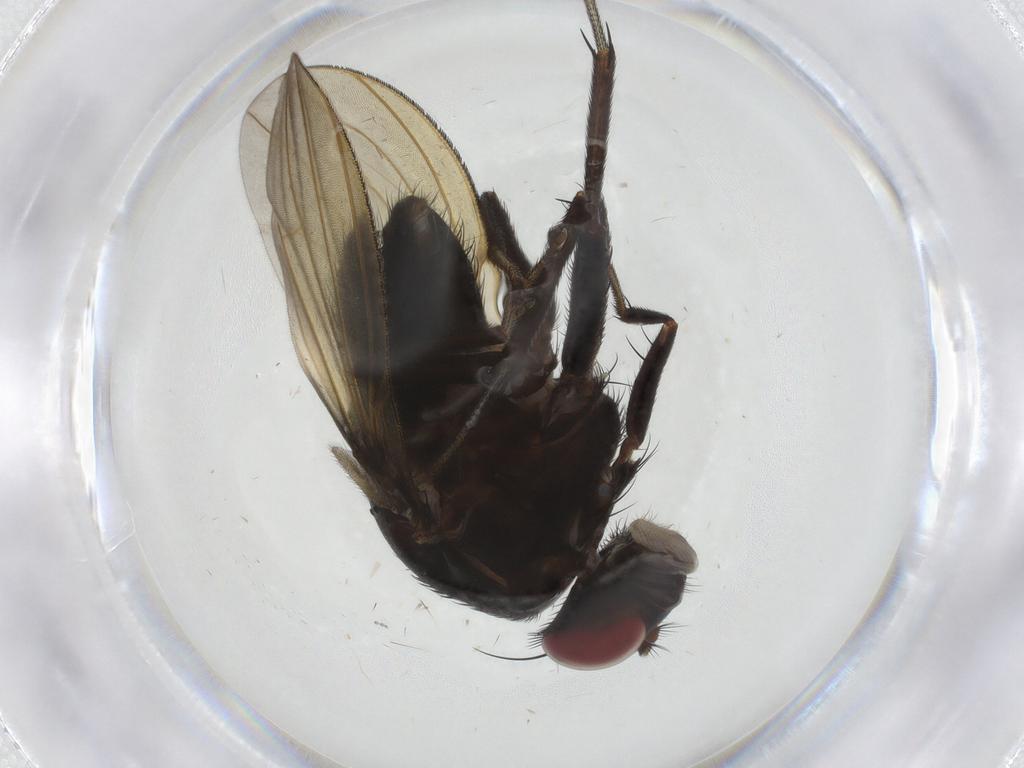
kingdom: Animalia
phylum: Arthropoda
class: Insecta
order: Diptera
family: Lauxaniidae
